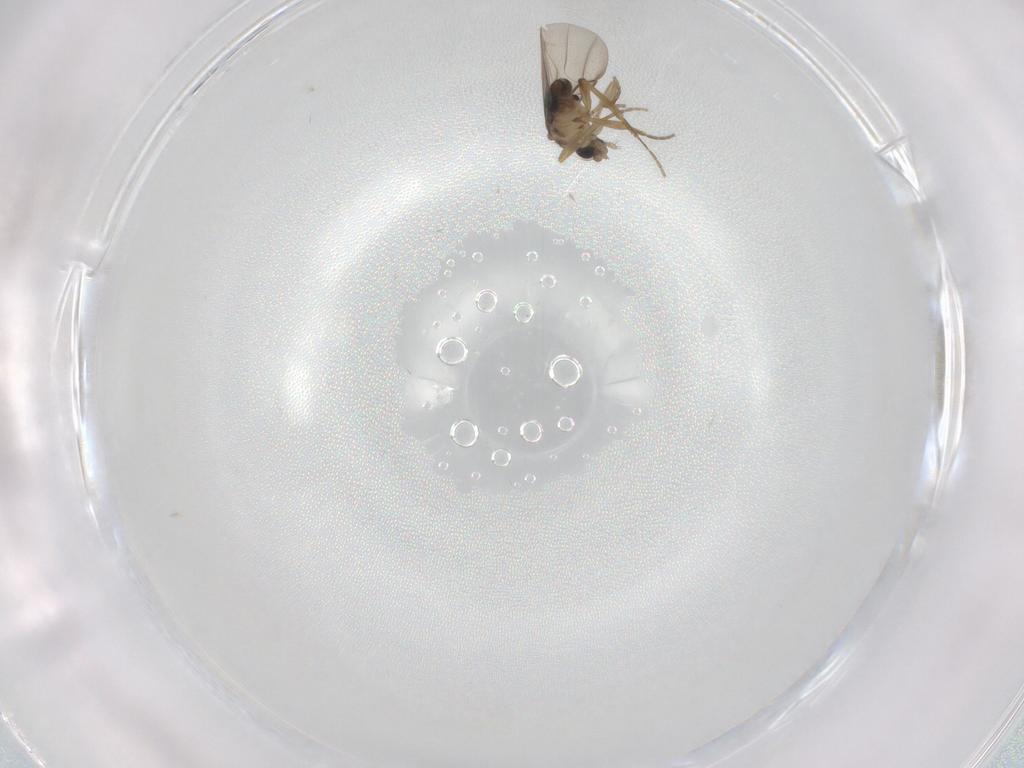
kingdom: Animalia
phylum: Arthropoda
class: Insecta
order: Diptera
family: Phoridae
